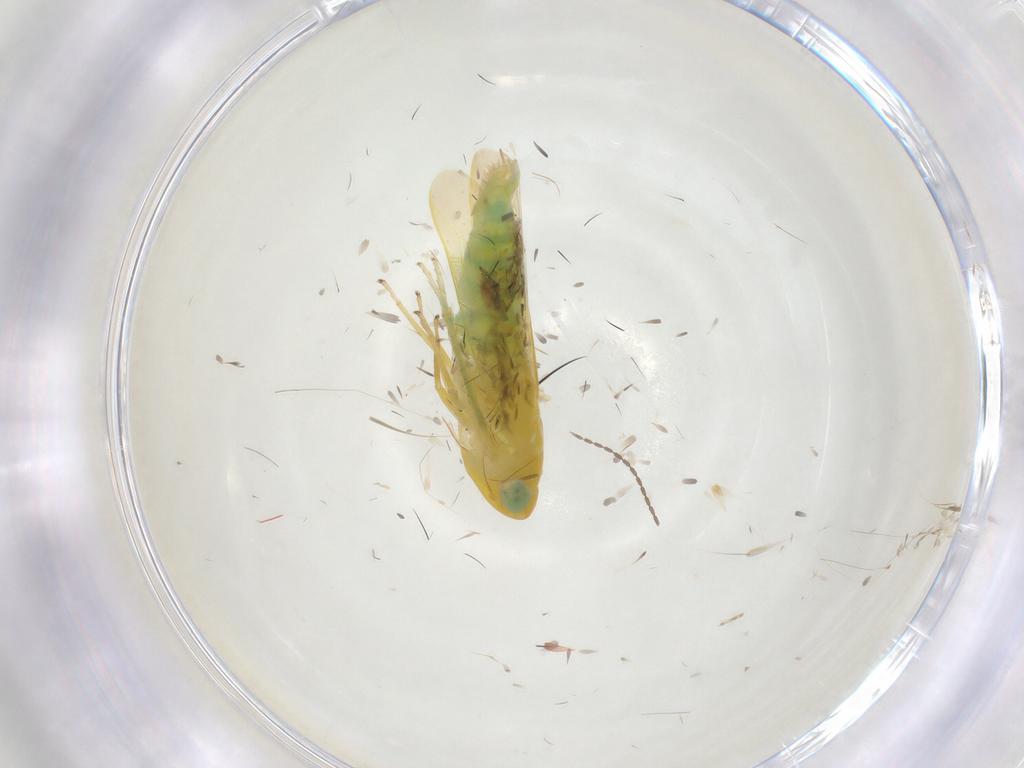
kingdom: Animalia
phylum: Arthropoda
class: Insecta
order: Hemiptera
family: Cicadellidae
